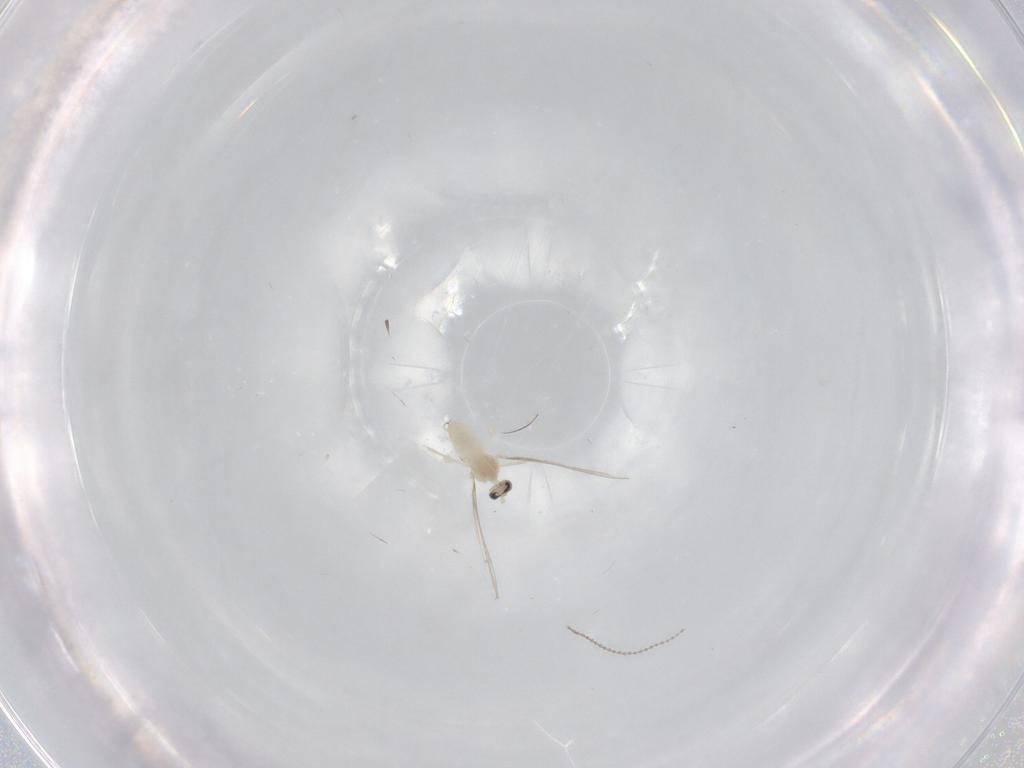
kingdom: Animalia
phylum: Arthropoda
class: Insecta
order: Diptera
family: Cecidomyiidae
